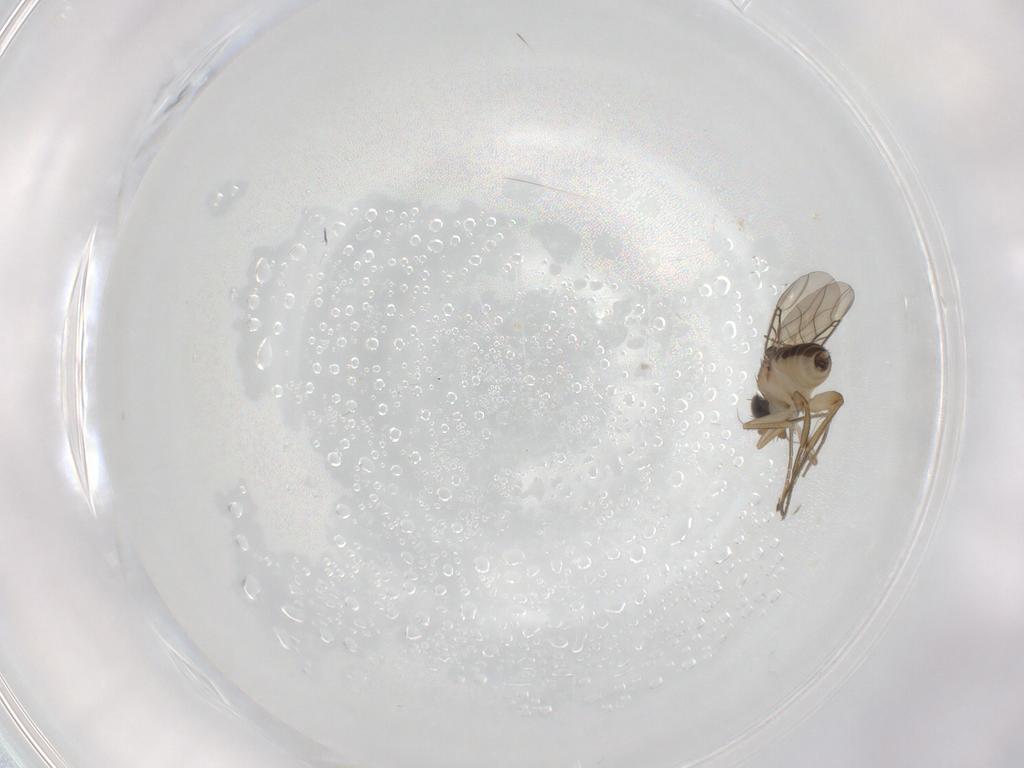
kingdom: Animalia
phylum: Arthropoda
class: Insecta
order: Diptera
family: Phoridae
